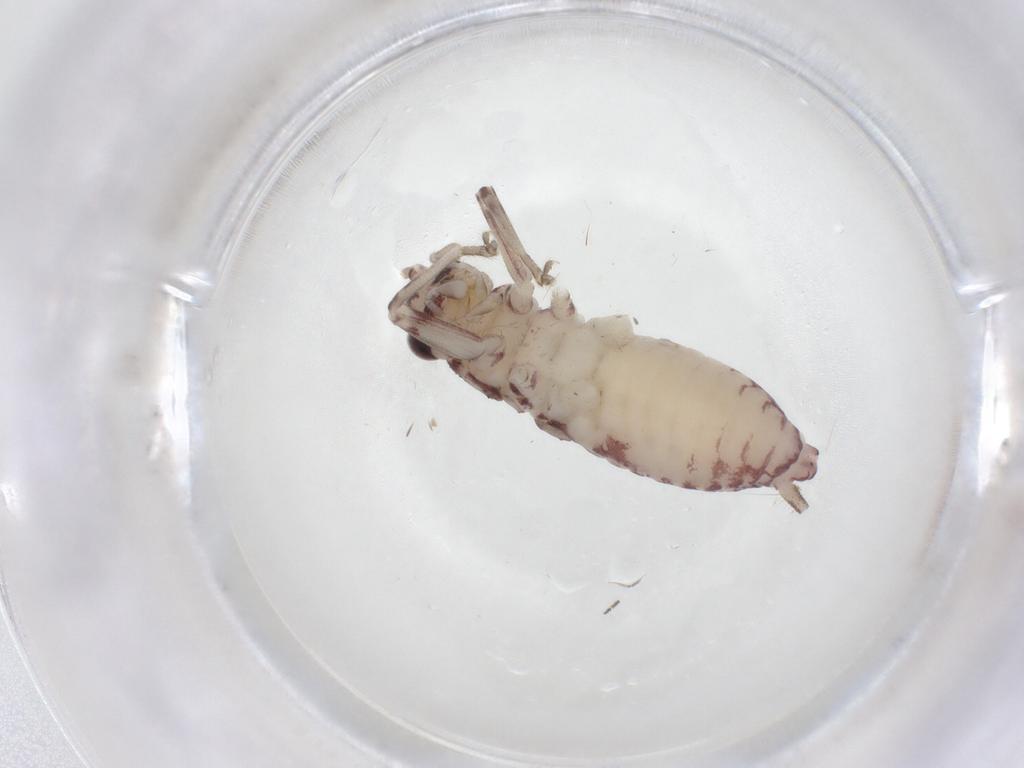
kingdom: Animalia
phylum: Arthropoda
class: Insecta
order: Orthoptera
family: Trigonidiidae
